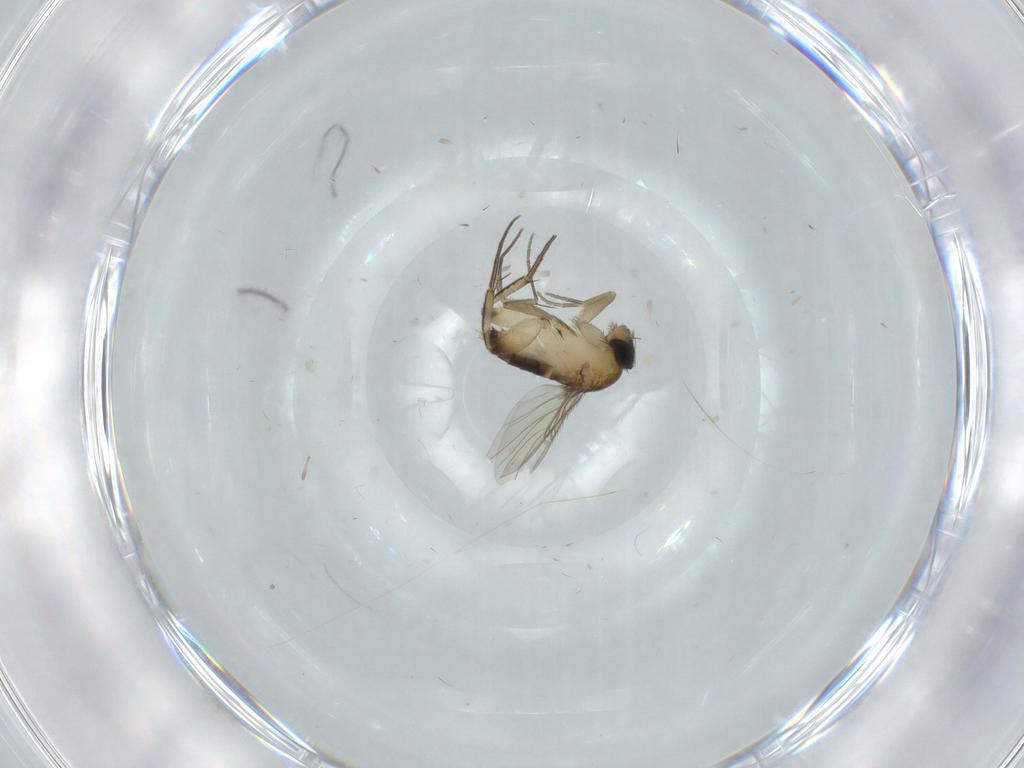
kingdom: Animalia
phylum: Arthropoda
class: Insecta
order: Diptera
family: Phoridae
